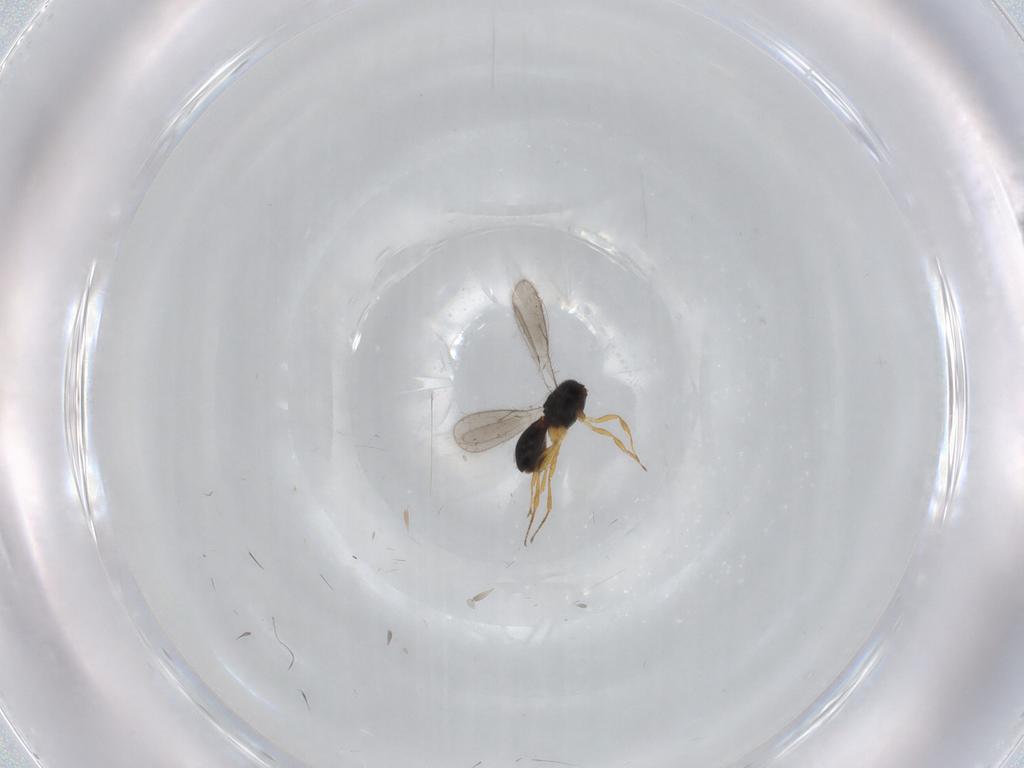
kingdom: Animalia
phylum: Arthropoda
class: Insecta
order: Hymenoptera
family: Scelionidae
